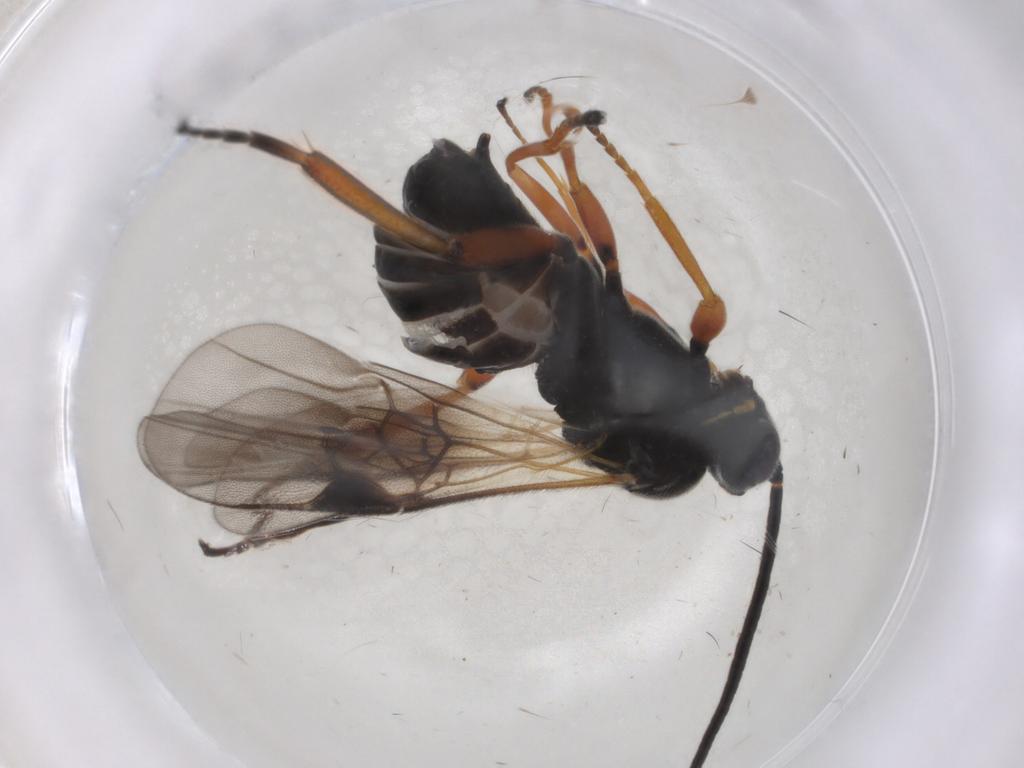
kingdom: Animalia
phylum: Arthropoda
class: Insecta
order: Hymenoptera
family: Braconidae
